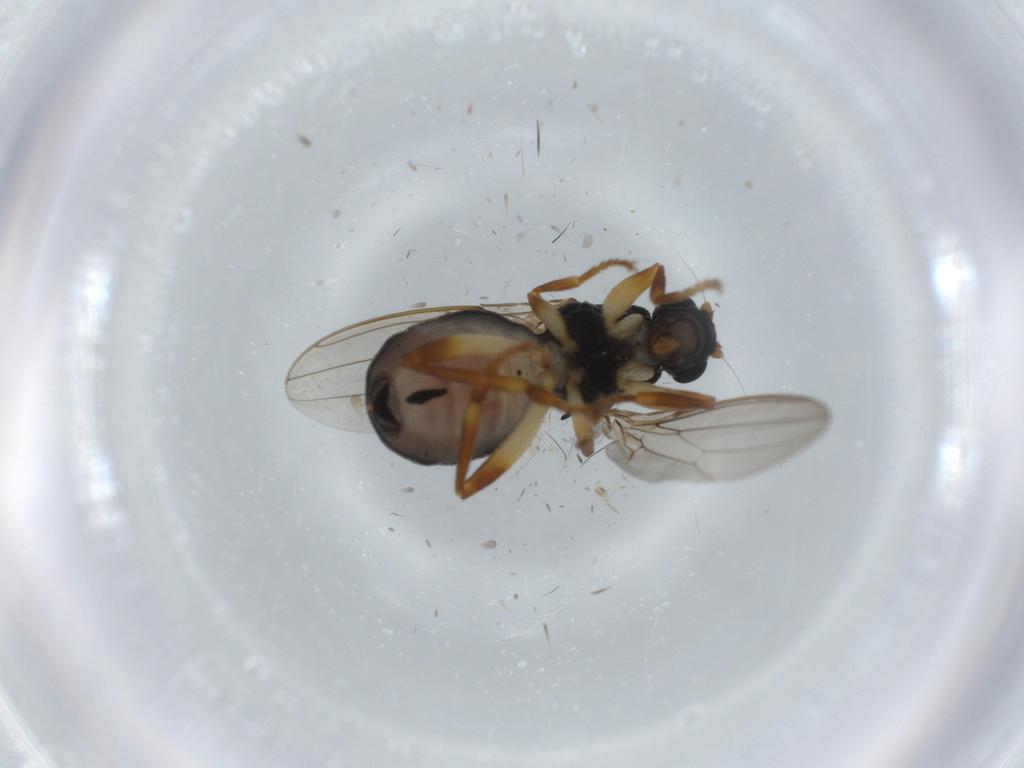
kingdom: Animalia
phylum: Arthropoda
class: Insecta
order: Diptera
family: Sphaeroceridae
